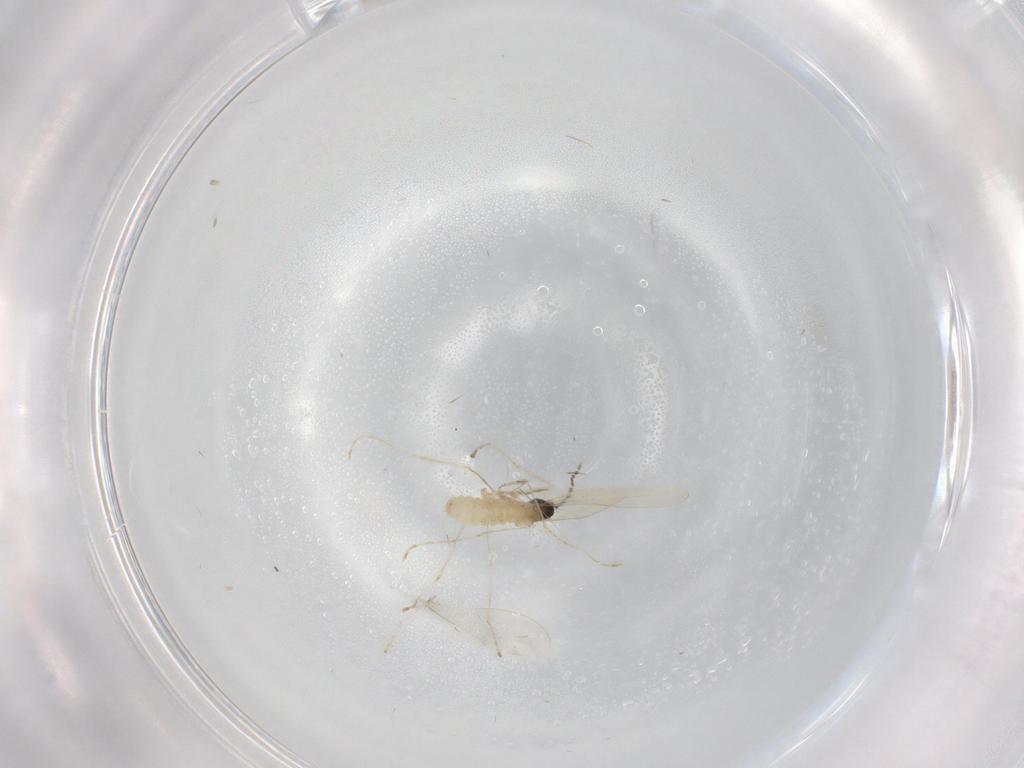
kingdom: Animalia
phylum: Arthropoda
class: Insecta
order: Diptera
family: Cecidomyiidae
